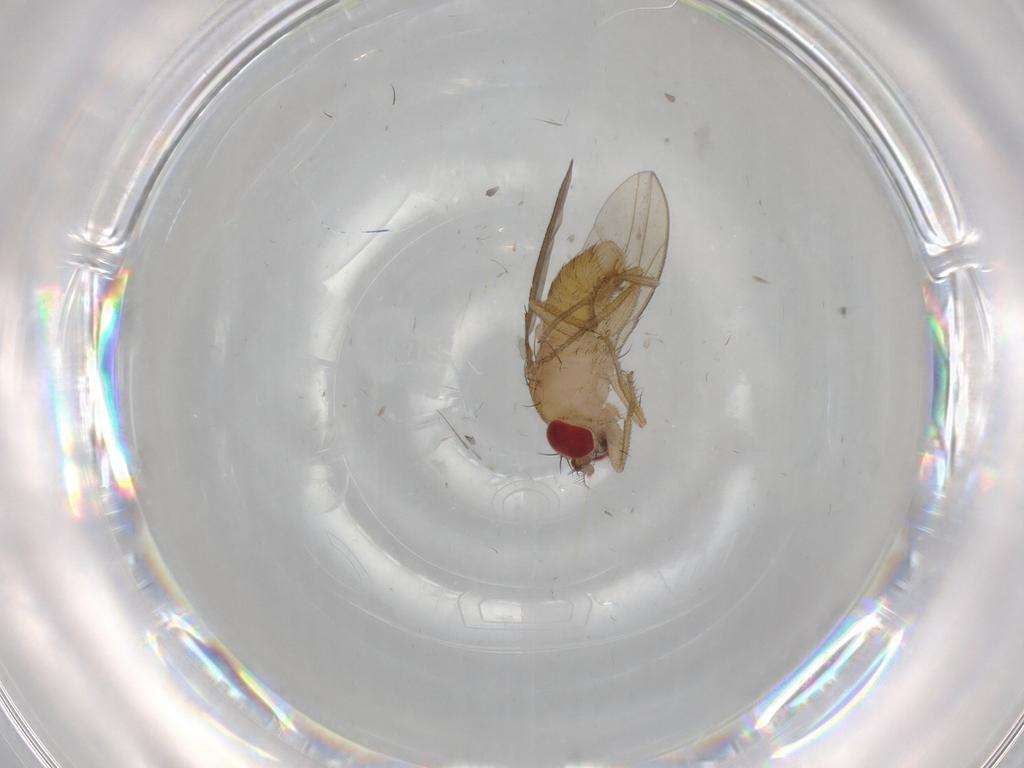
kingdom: Animalia
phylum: Arthropoda
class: Insecta
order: Diptera
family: Drosophilidae
